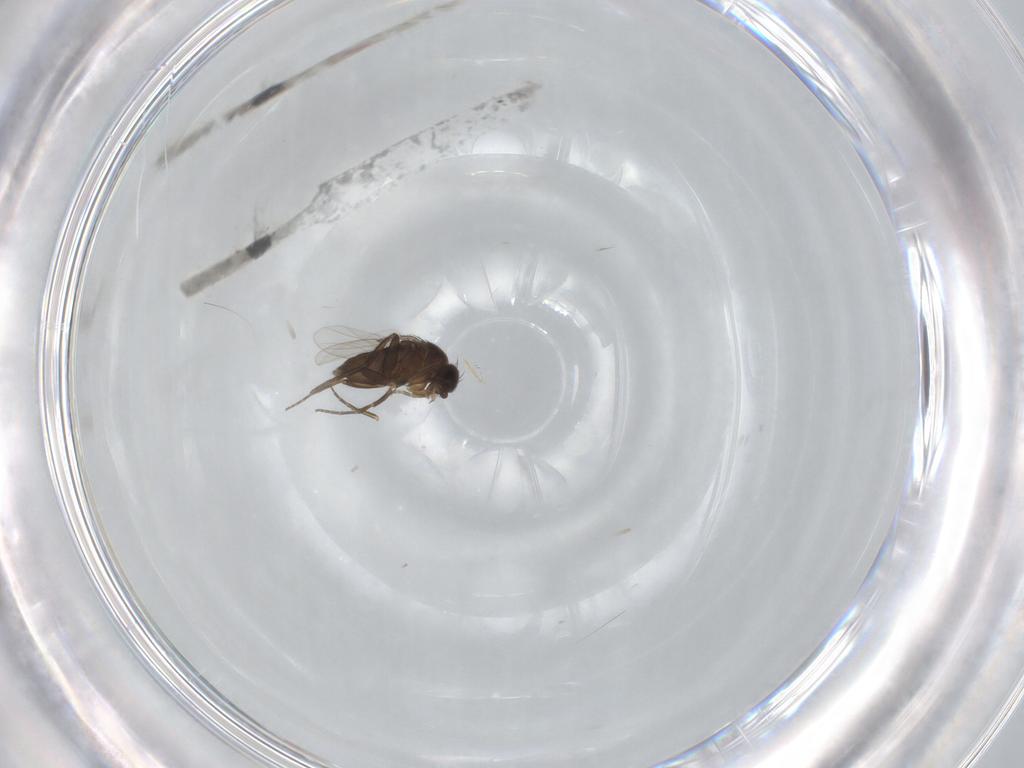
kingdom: Animalia
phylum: Arthropoda
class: Insecta
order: Diptera
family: Phoridae
